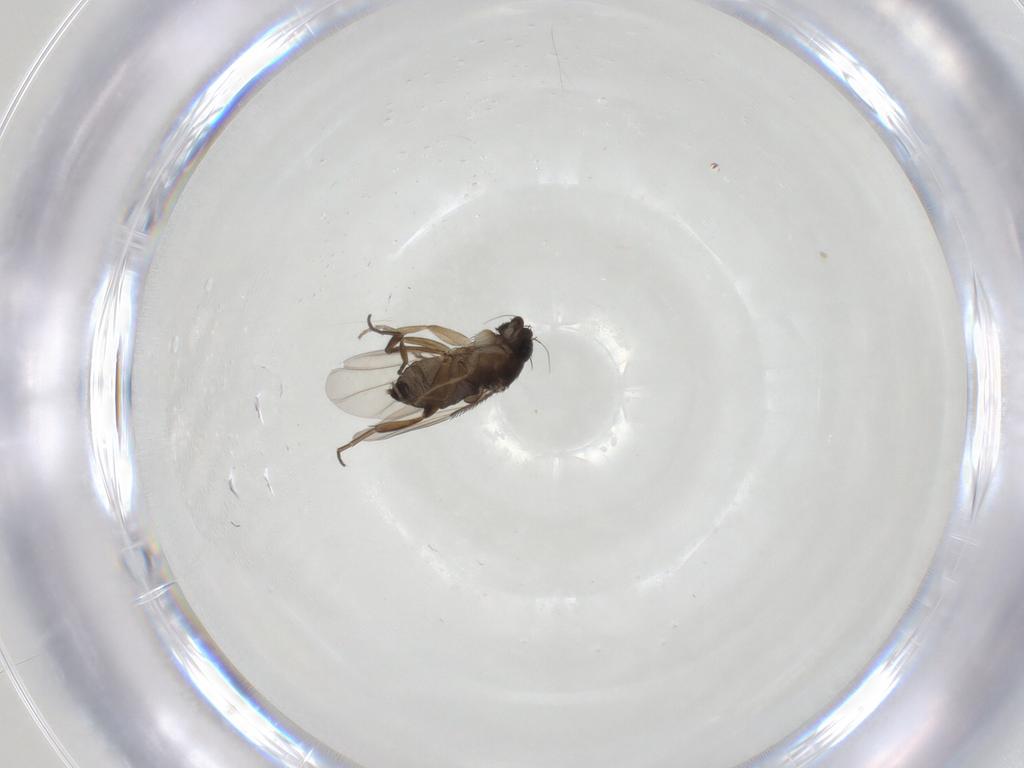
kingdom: Animalia
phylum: Arthropoda
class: Insecta
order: Diptera
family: Phoridae
